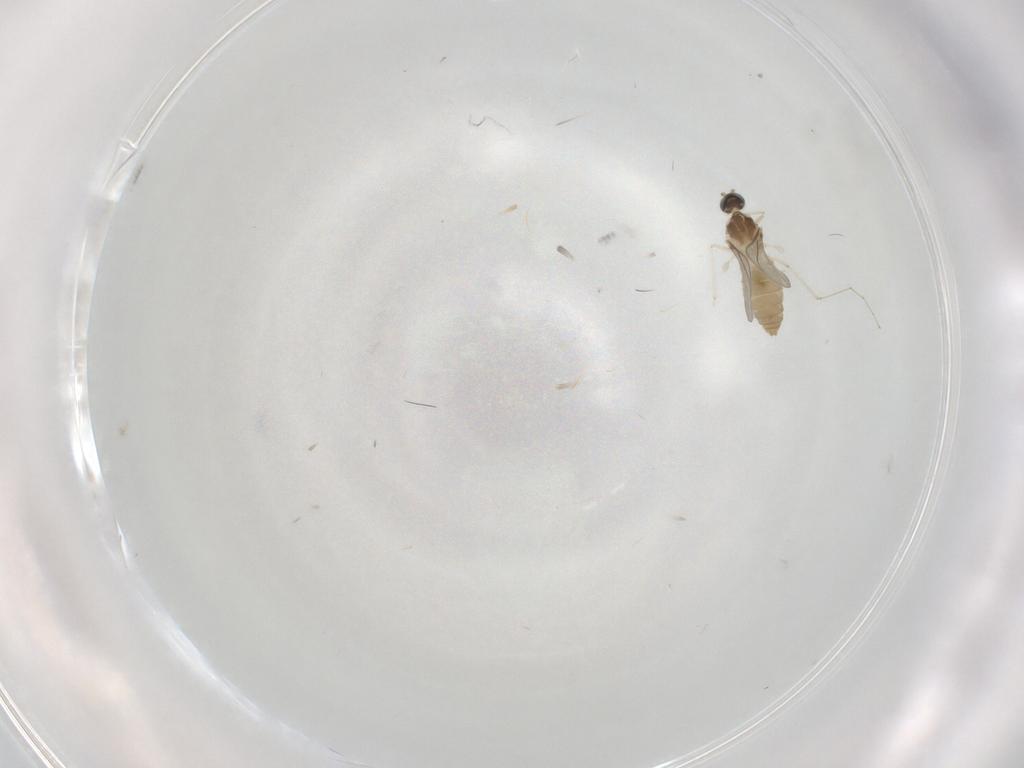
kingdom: Animalia
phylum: Arthropoda
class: Insecta
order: Diptera
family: Cecidomyiidae
